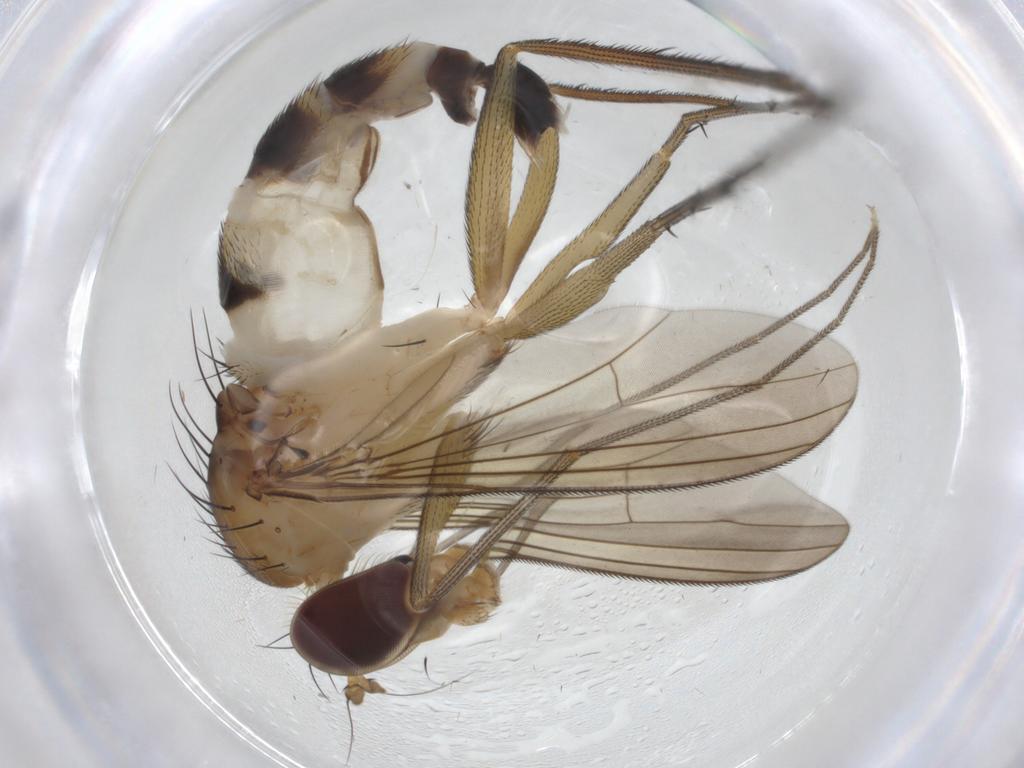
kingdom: Animalia
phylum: Arthropoda
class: Insecta
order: Diptera
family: Dolichopodidae
